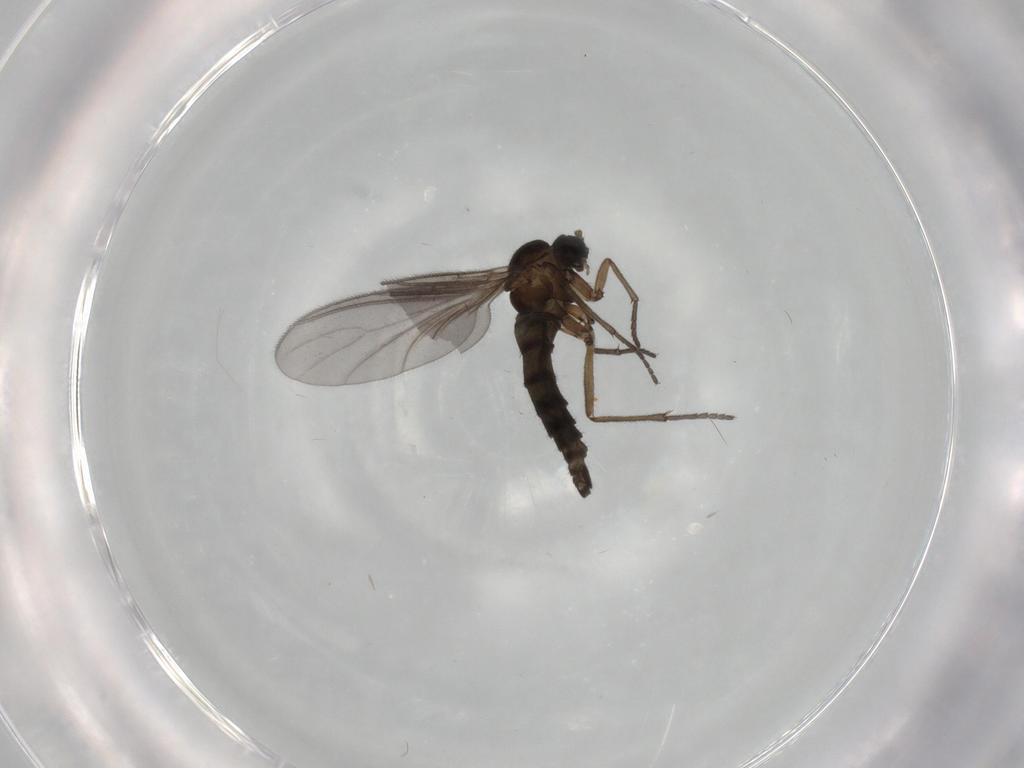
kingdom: Animalia
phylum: Arthropoda
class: Insecta
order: Diptera
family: Sciaridae
